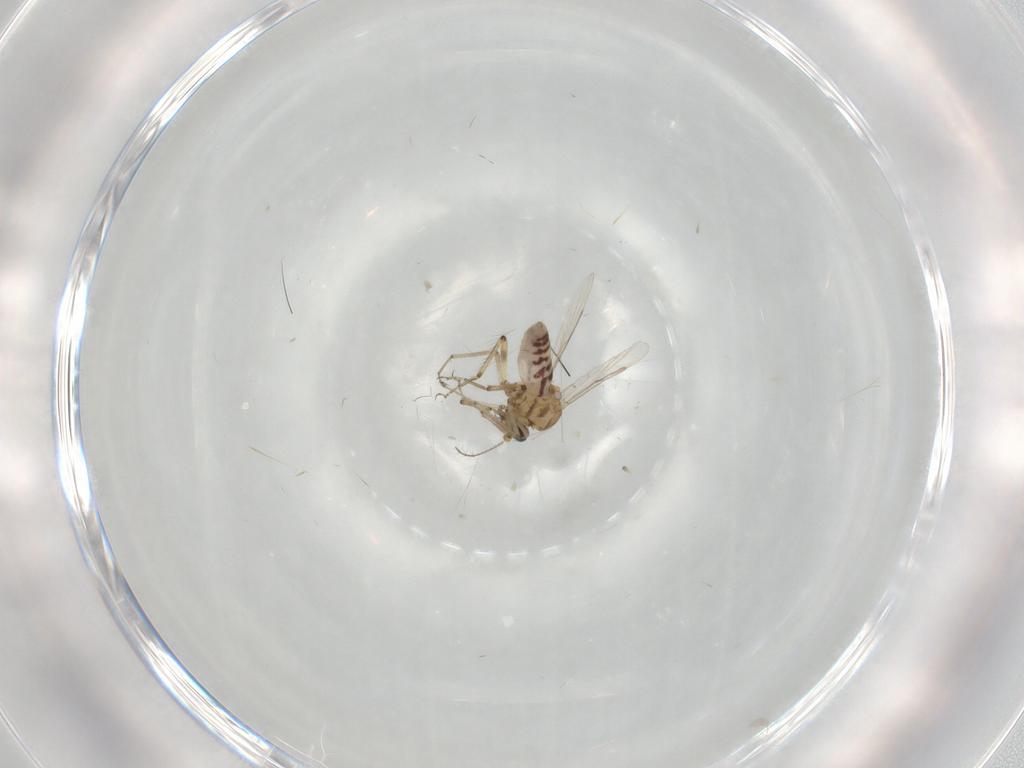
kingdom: Animalia
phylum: Arthropoda
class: Insecta
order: Diptera
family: Ceratopogonidae
